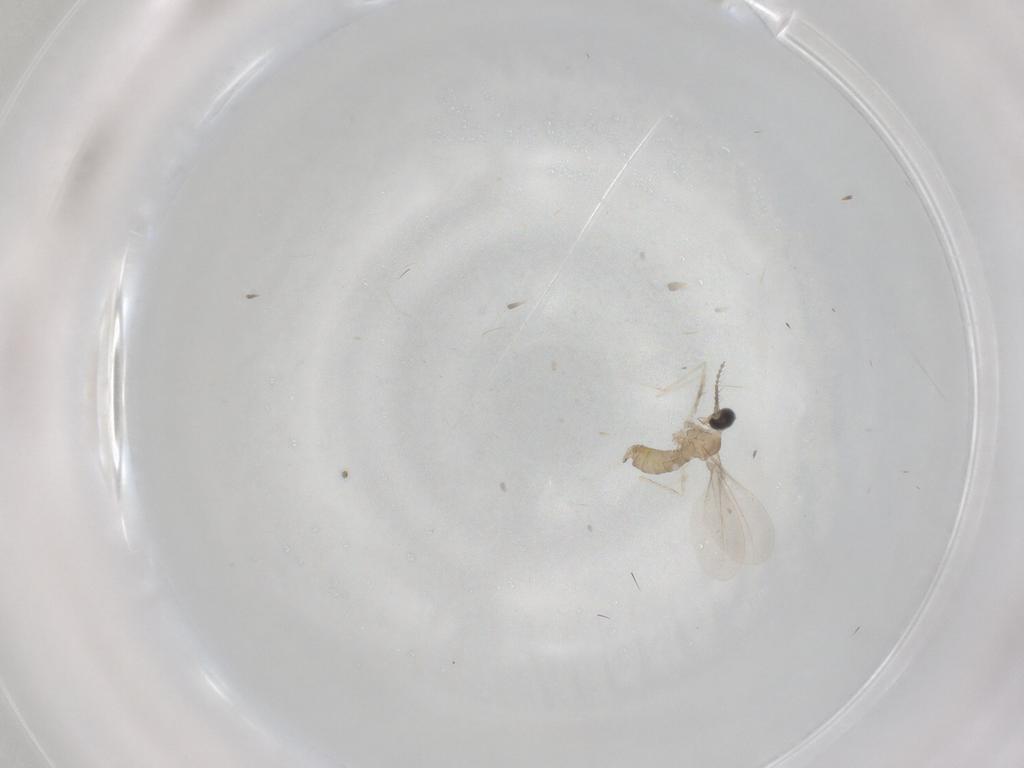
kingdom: Animalia
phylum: Arthropoda
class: Insecta
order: Diptera
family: Cecidomyiidae
